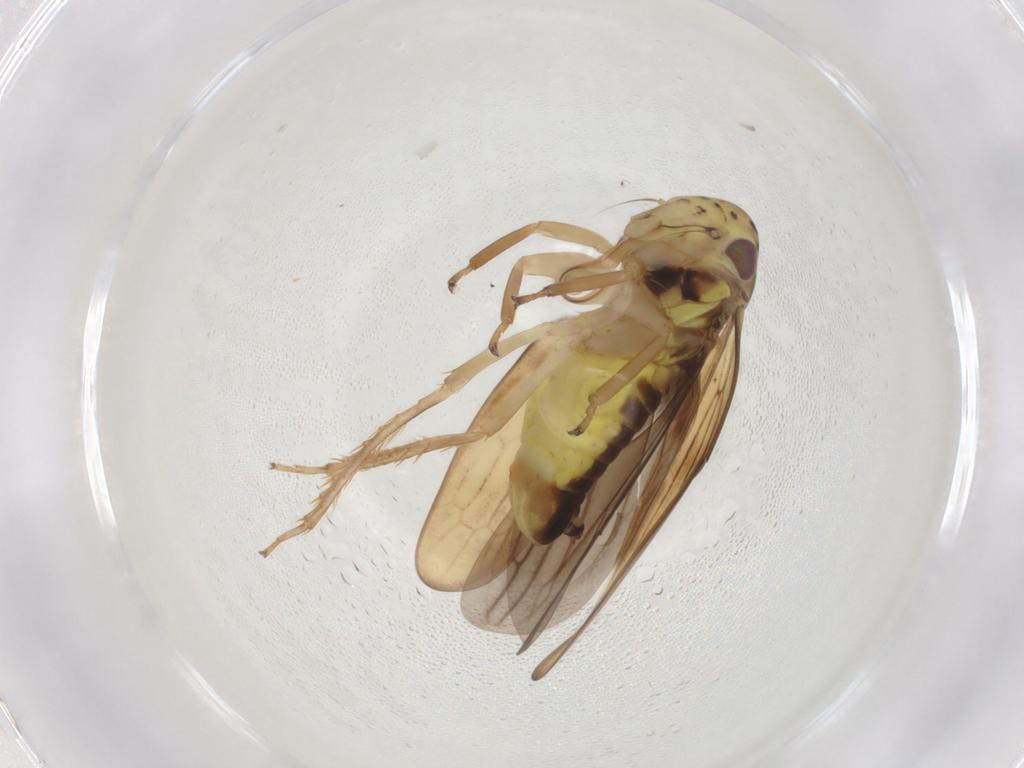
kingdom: Animalia
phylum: Arthropoda
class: Insecta
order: Hemiptera
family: Cicadellidae
